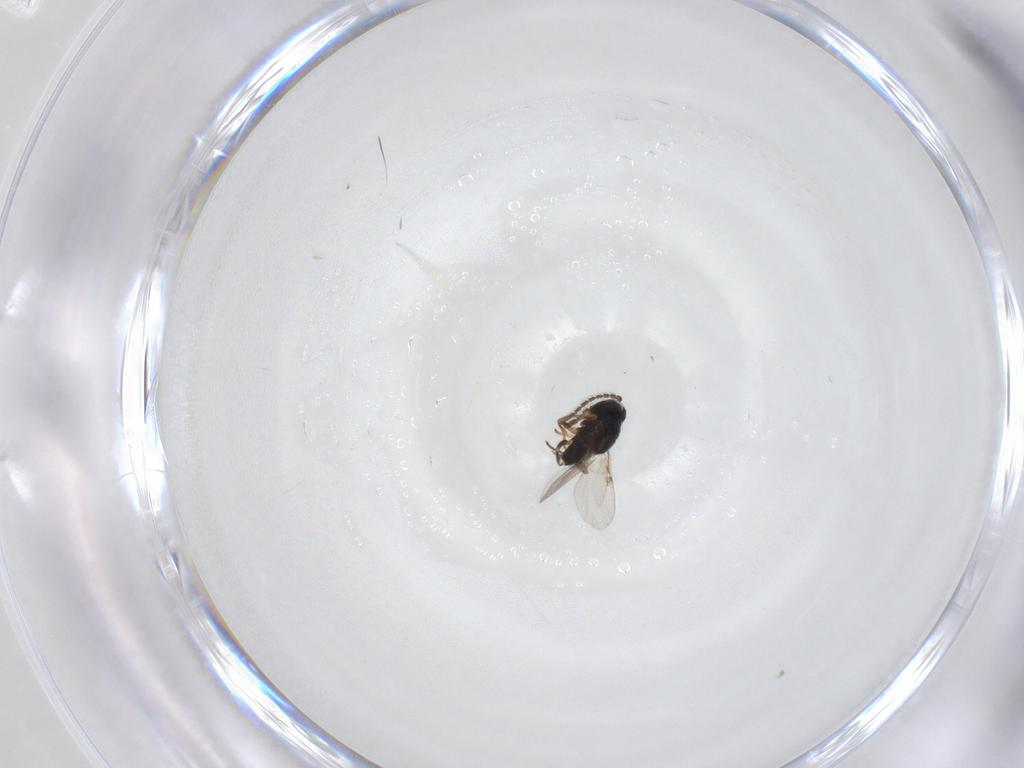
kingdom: Animalia
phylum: Arthropoda
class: Insecta
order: Hymenoptera
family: Encyrtidae
